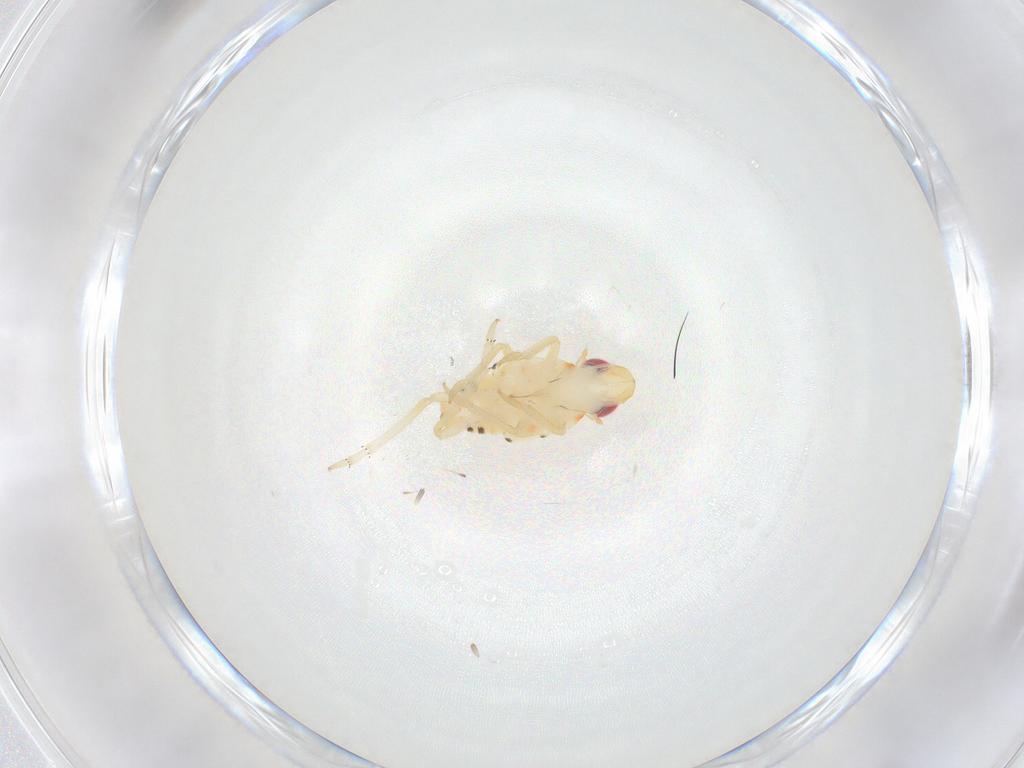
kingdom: Animalia
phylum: Arthropoda
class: Insecta
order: Hemiptera
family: Tropiduchidae
